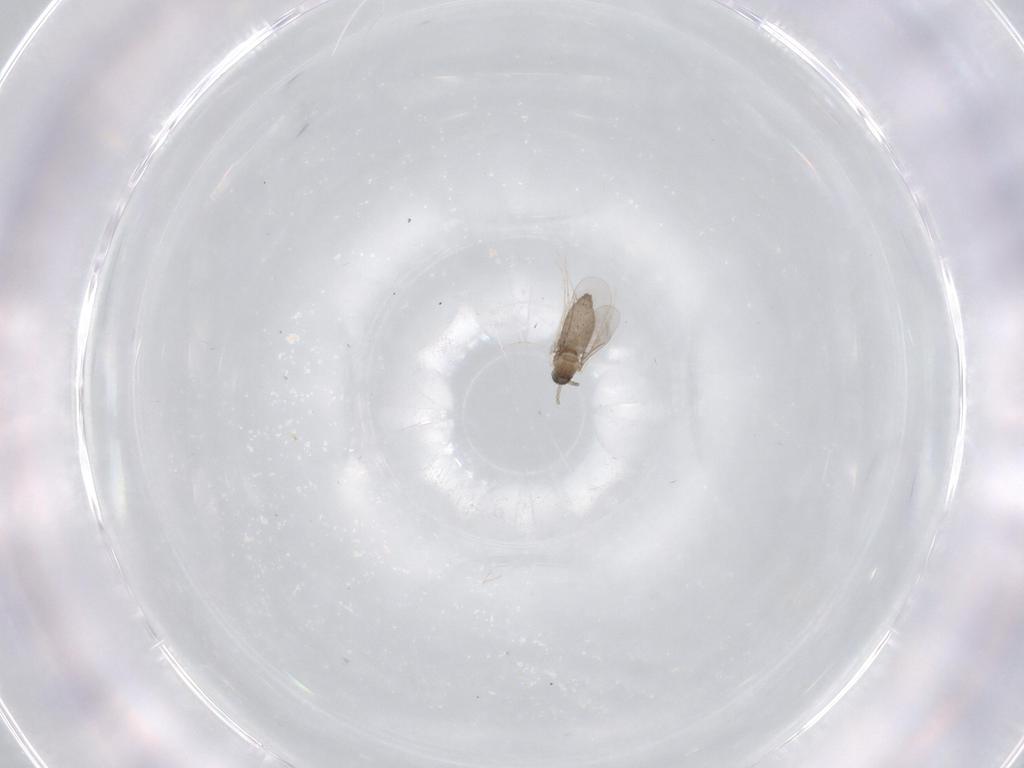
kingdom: Animalia
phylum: Arthropoda
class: Insecta
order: Diptera
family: Cecidomyiidae
